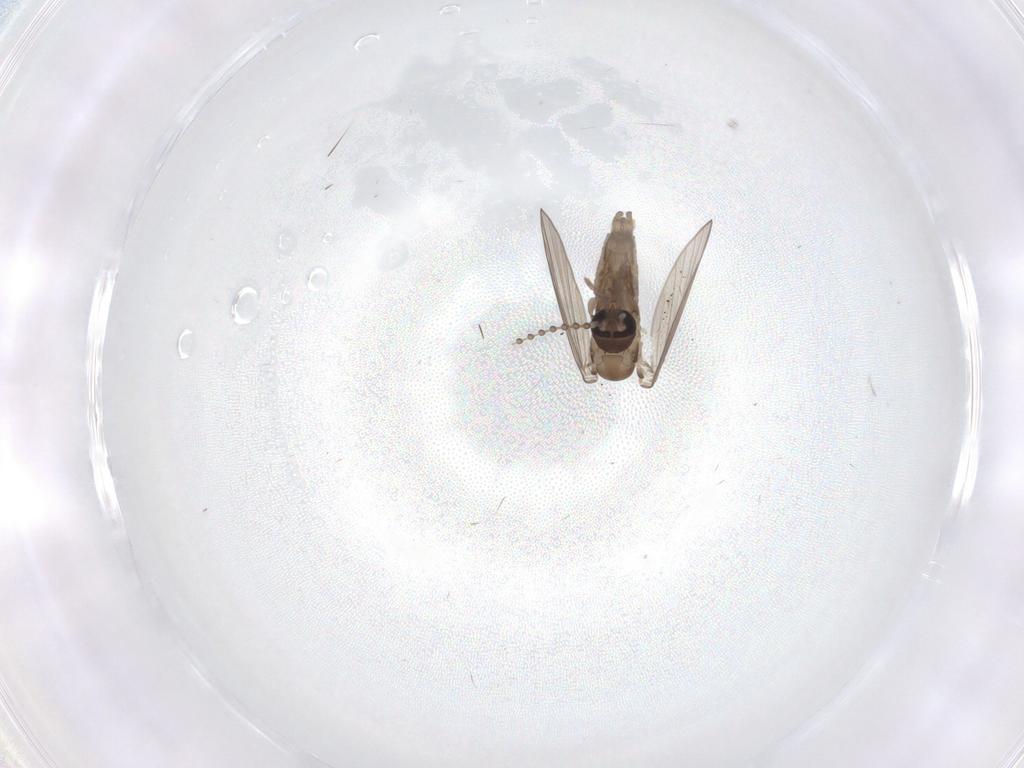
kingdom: Animalia
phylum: Arthropoda
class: Insecta
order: Diptera
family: Psychodidae
